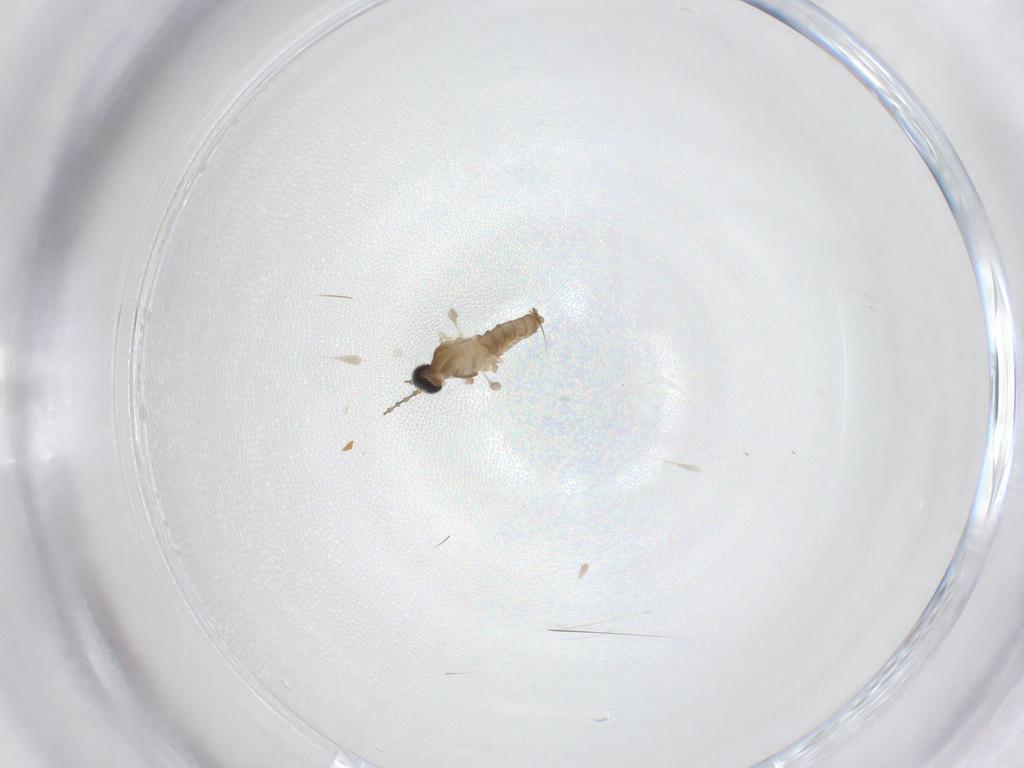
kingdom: Animalia
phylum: Arthropoda
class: Insecta
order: Diptera
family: Cecidomyiidae
